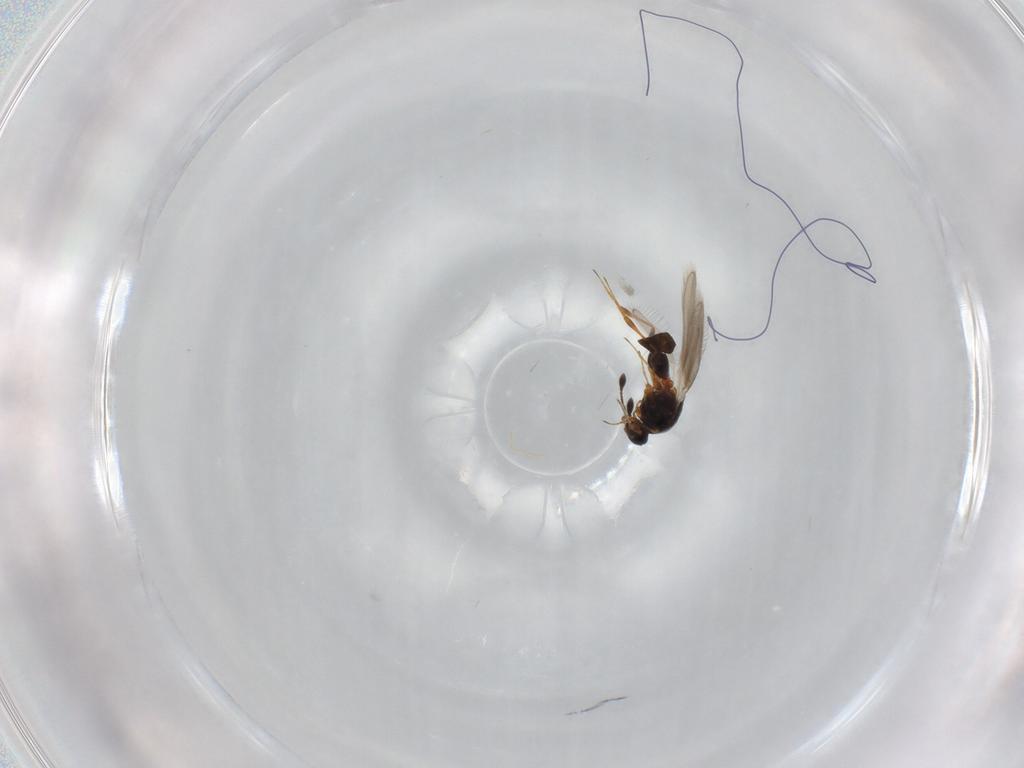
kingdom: Animalia
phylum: Arthropoda
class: Insecta
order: Hymenoptera
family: Platygastridae
